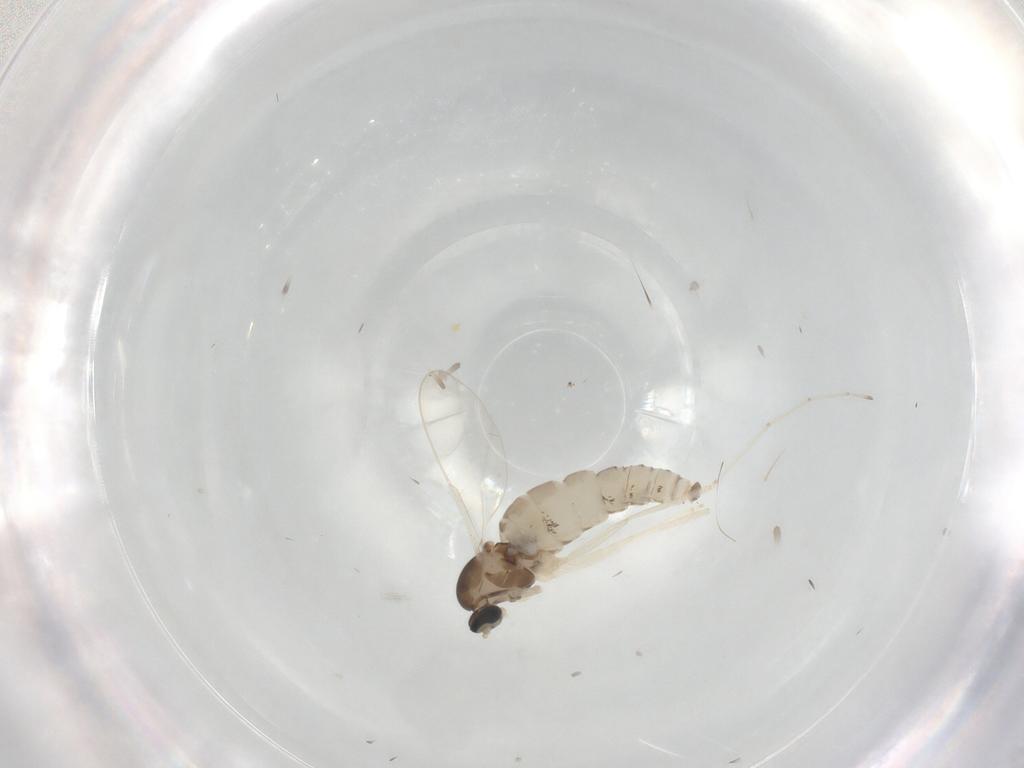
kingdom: Animalia
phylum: Arthropoda
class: Insecta
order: Diptera
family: Cecidomyiidae
